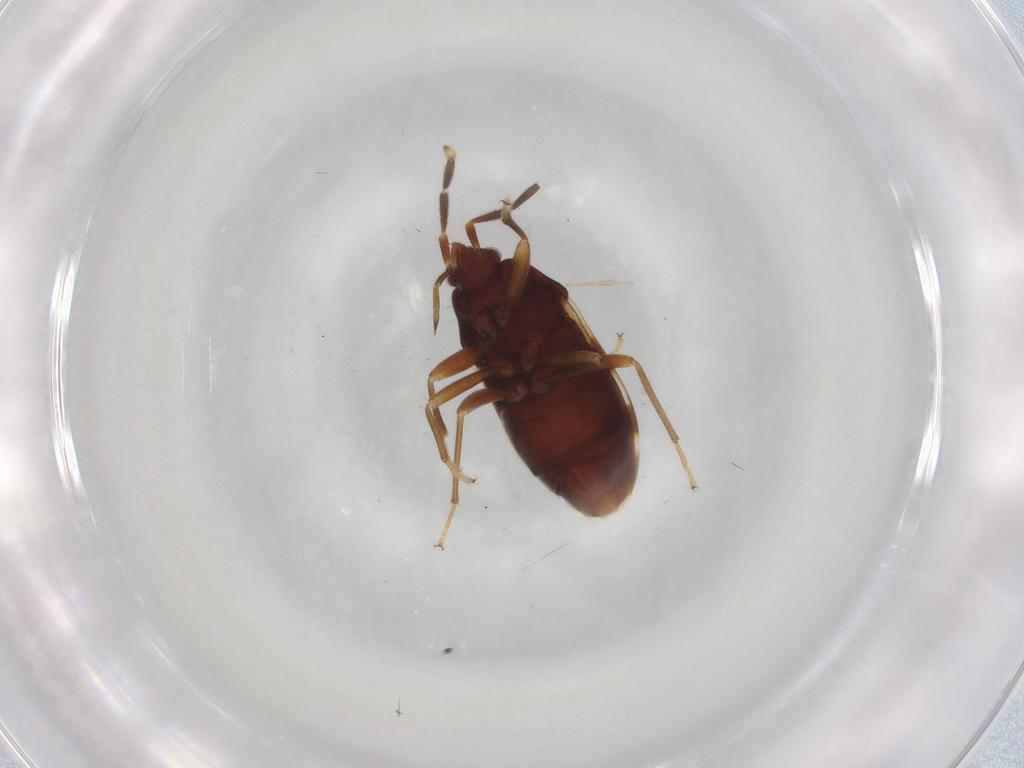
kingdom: Animalia
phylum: Arthropoda
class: Insecta
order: Hemiptera
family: Rhyparochromidae
